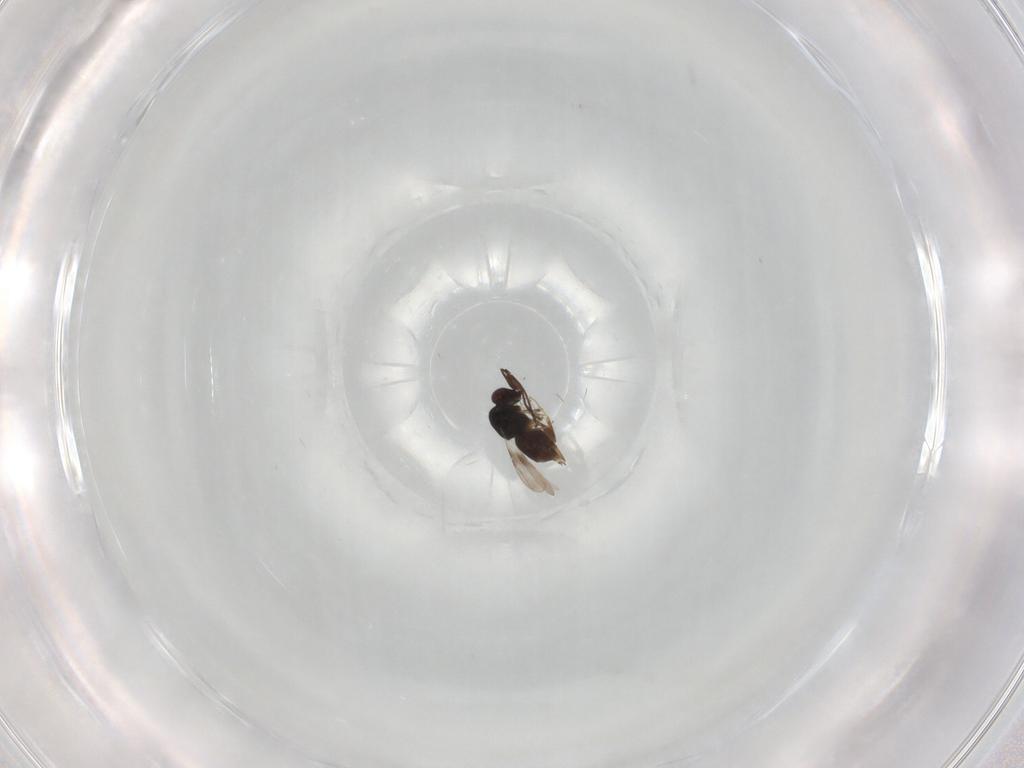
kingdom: Animalia
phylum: Arthropoda
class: Insecta
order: Hymenoptera
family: Ceraphronidae
